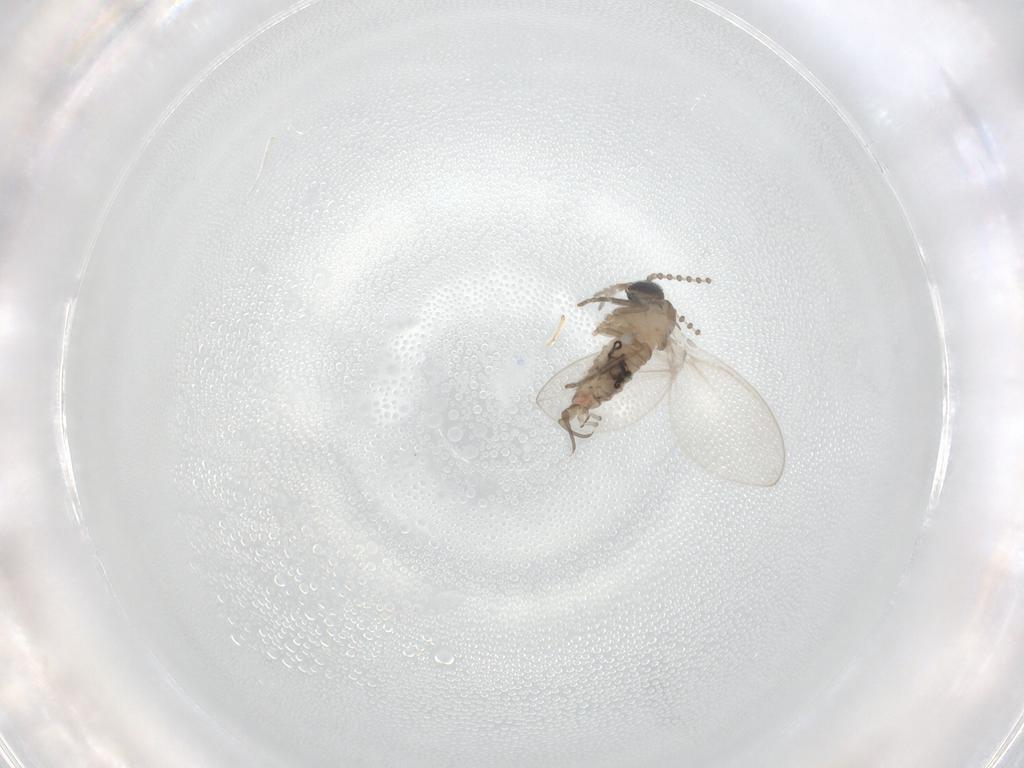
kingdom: Animalia
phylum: Arthropoda
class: Insecta
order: Diptera
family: Psychodidae
